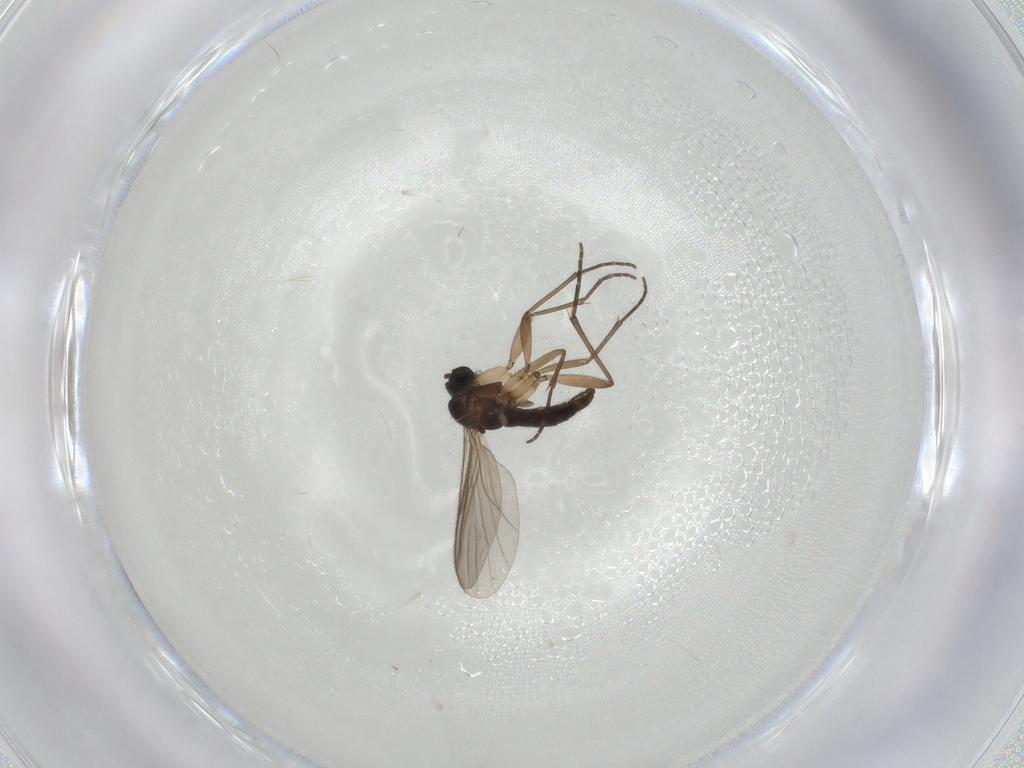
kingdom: Animalia
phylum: Arthropoda
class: Insecta
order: Diptera
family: Sciaridae
